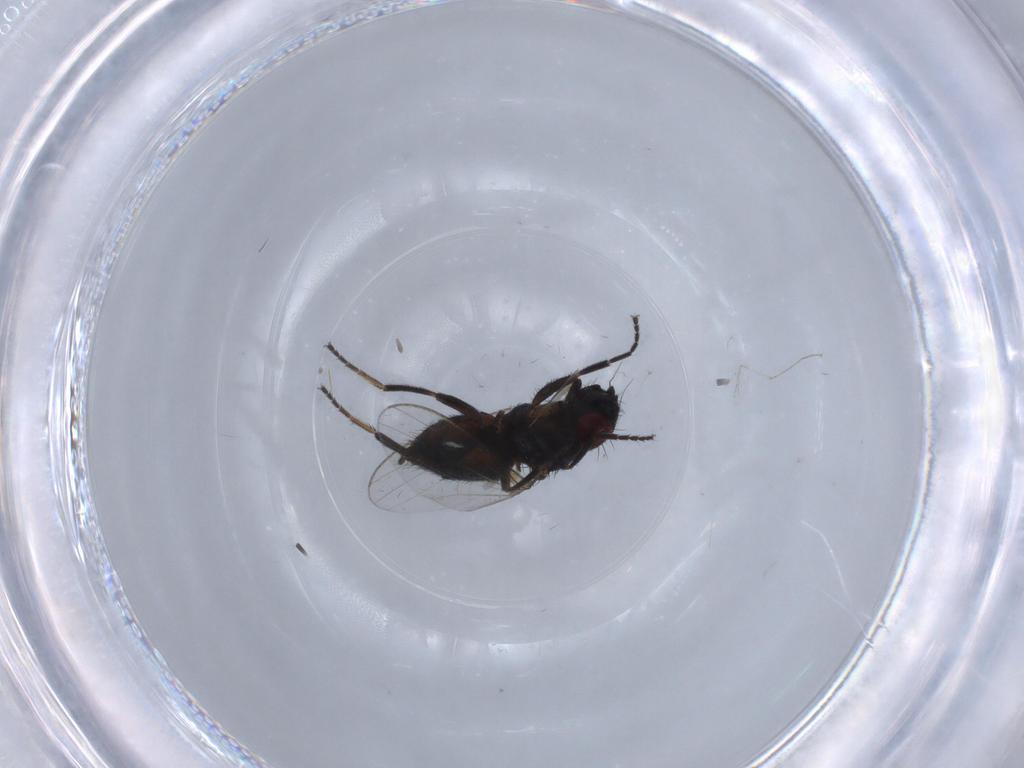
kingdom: Animalia
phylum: Arthropoda
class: Insecta
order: Diptera
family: Milichiidae
